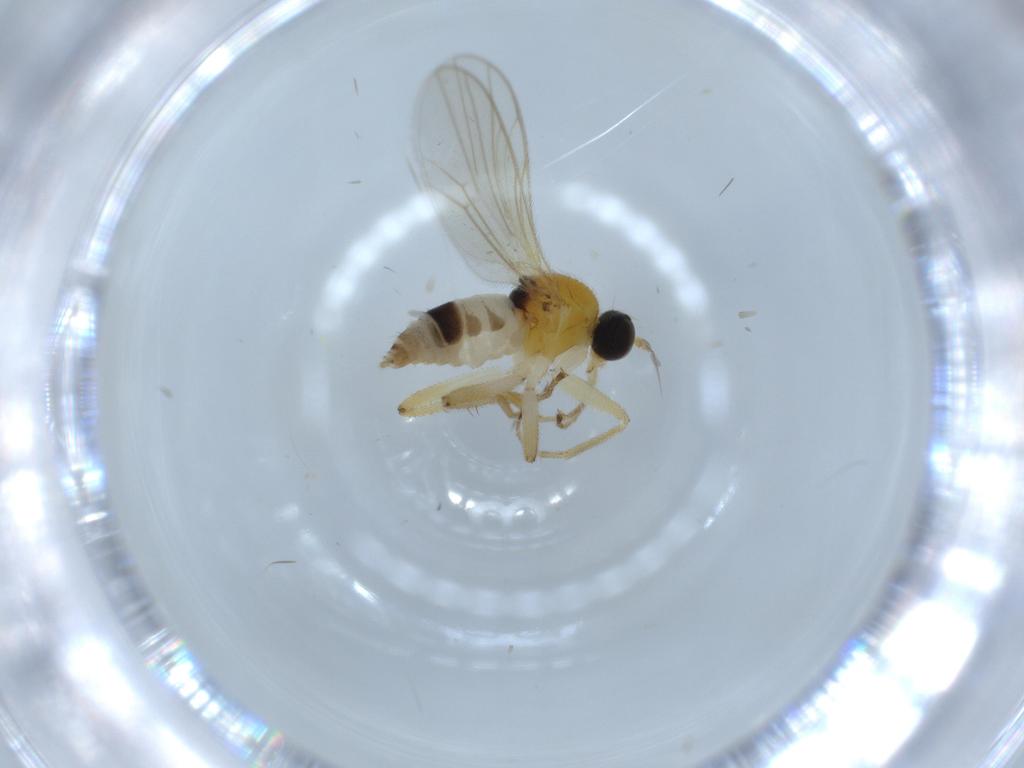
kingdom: Animalia
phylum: Arthropoda
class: Insecta
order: Diptera
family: Hybotidae
